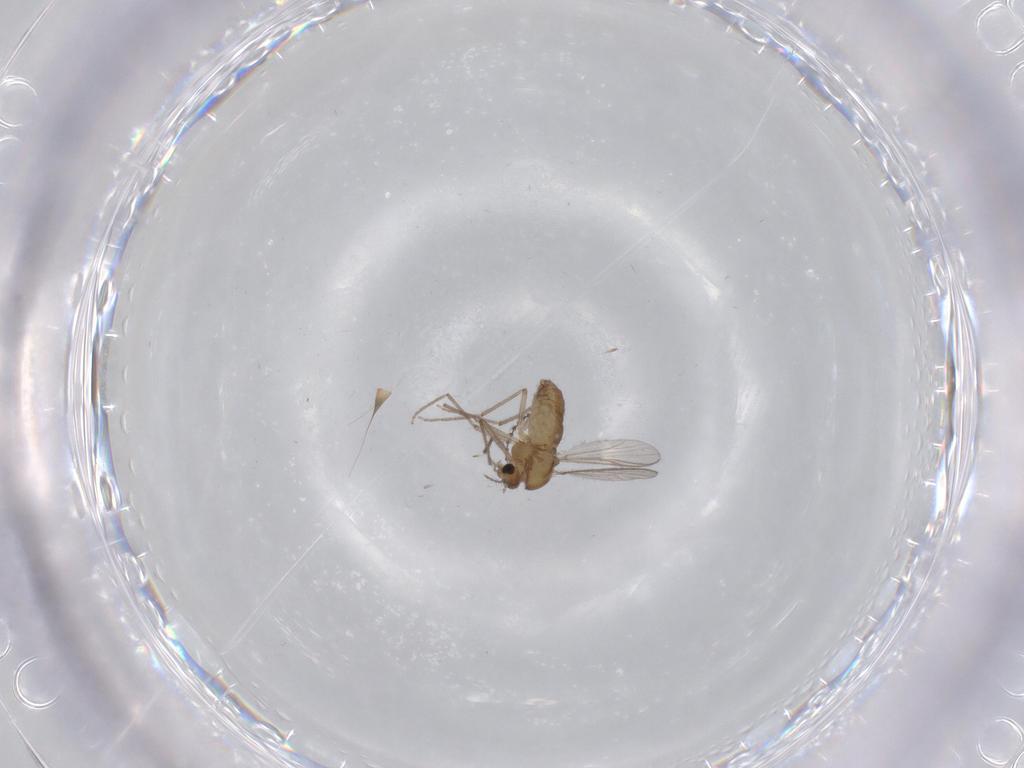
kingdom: Animalia
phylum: Arthropoda
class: Insecta
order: Diptera
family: Chironomidae
